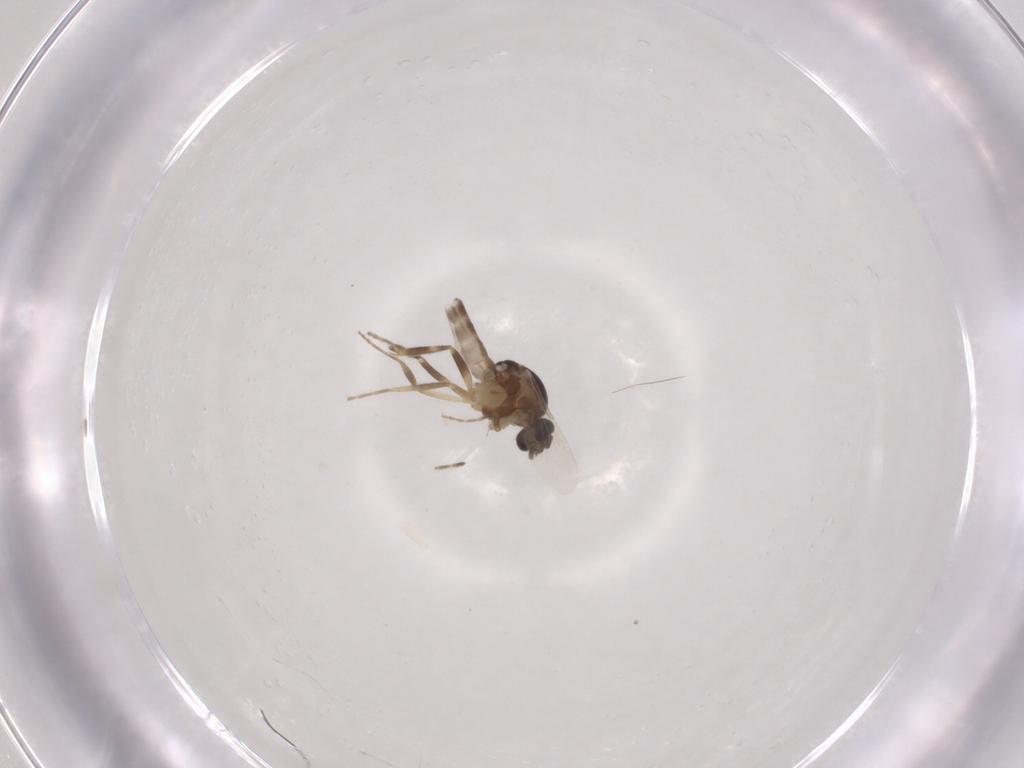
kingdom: Animalia
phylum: Arthropoda
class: Insecta
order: Diptera
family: Ceratopogonidae
